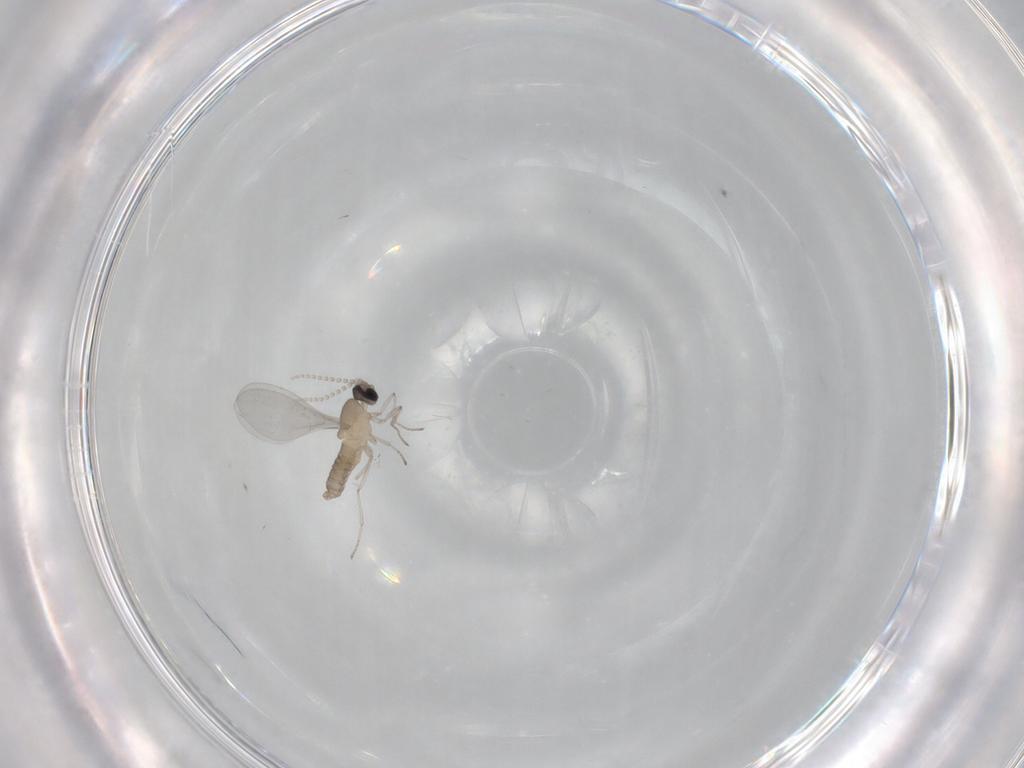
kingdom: Animalia
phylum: Arthropoda
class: Insecta
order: Diptera
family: Cecidomyiidae
